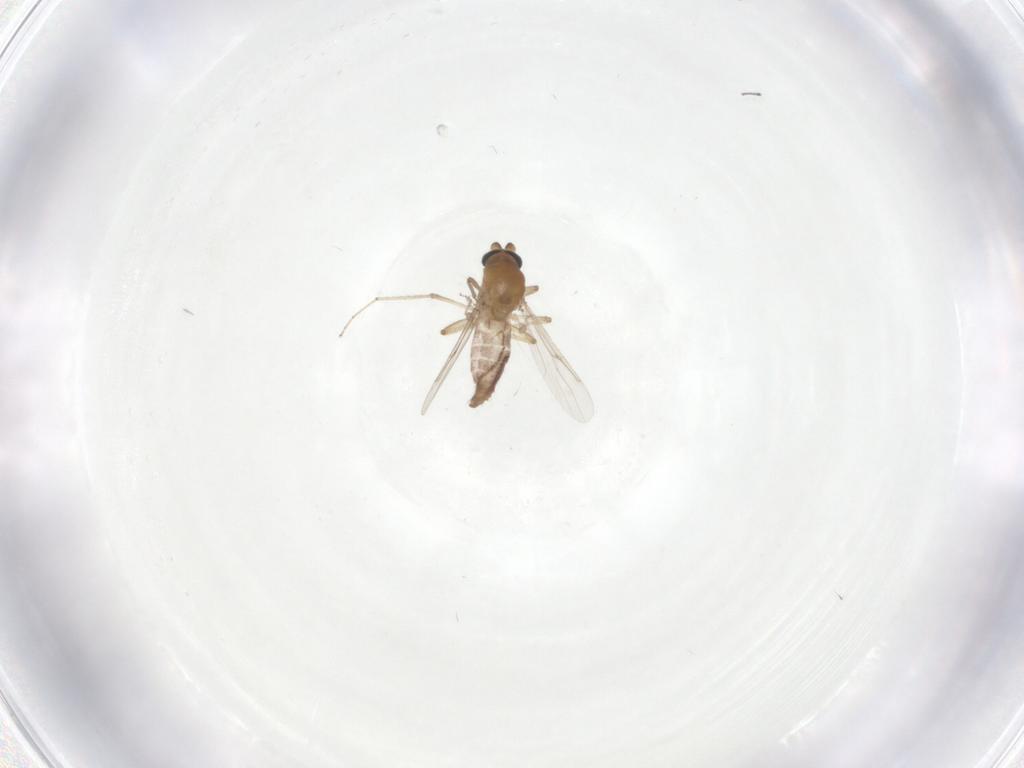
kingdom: Animalia
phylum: Arthropoda
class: Insecta
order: Diptera
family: Ceratopogonidae
